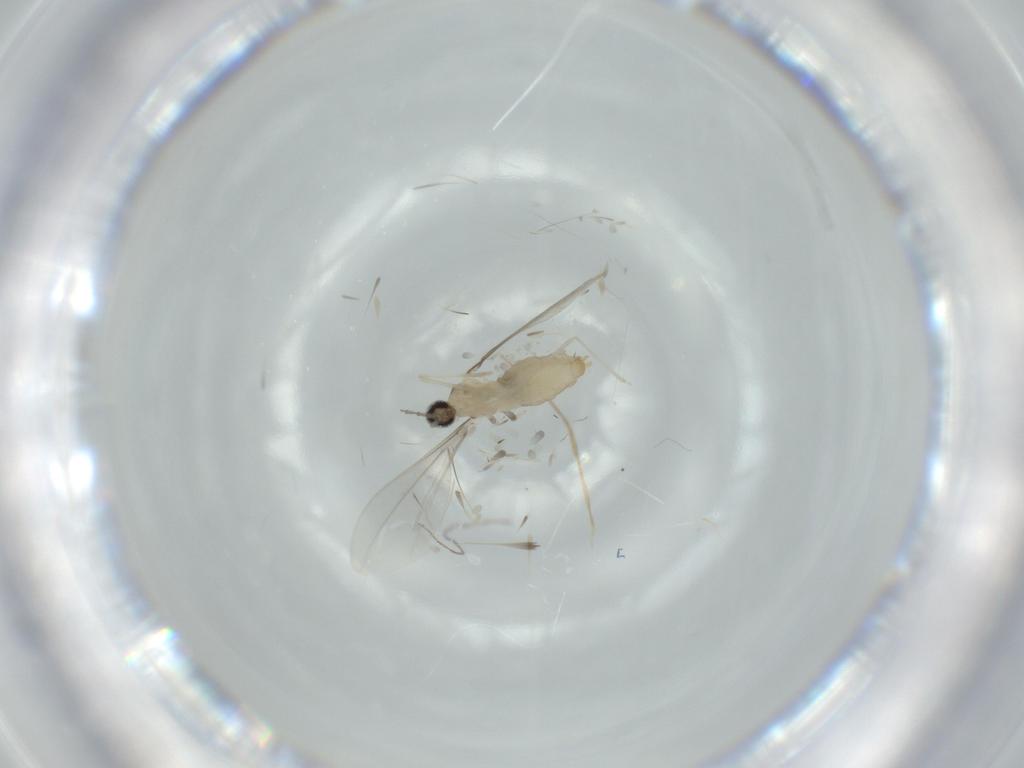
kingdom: Animalia
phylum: Arthropoda
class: Insecta
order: Diptera
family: Cecidomyiidae
